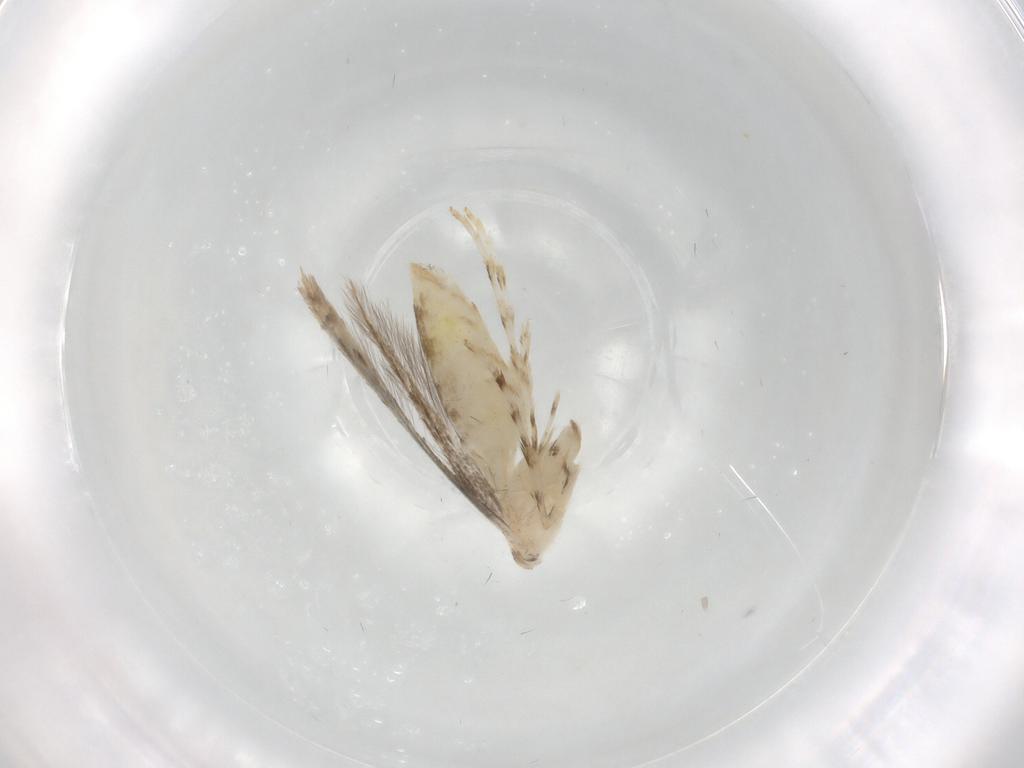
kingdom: Animalia
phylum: Arthropoda
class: Insecta
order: Lepidoptera
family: Gracillariidae
